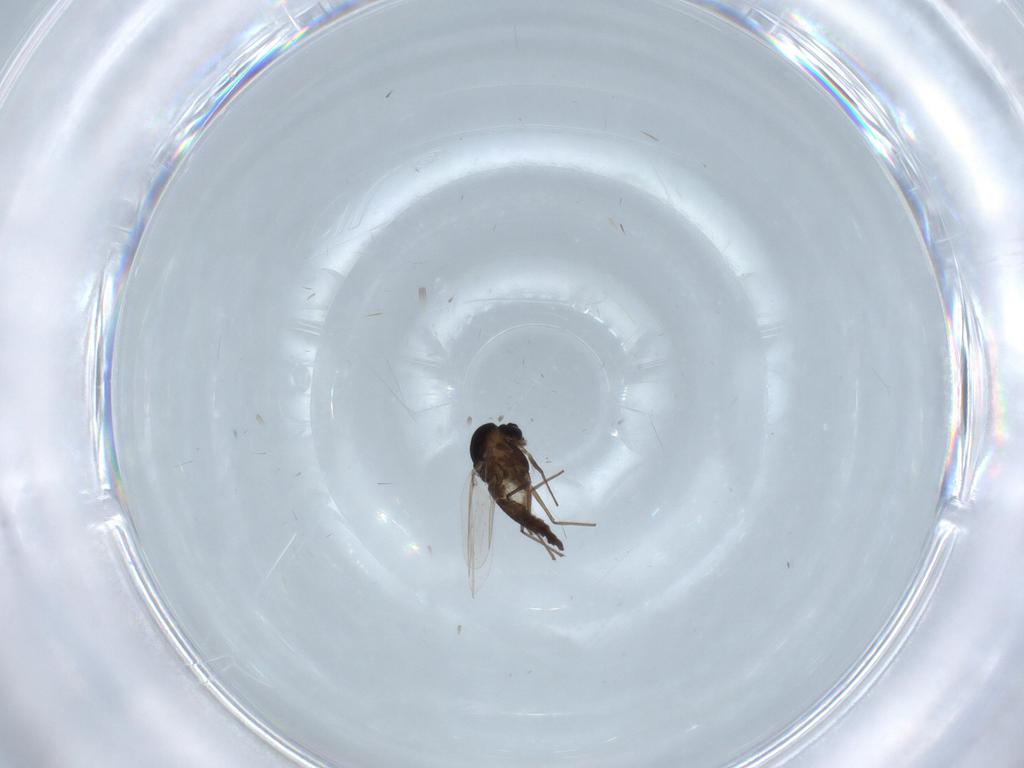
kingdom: Animalia
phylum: Arthropoda
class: Insecta
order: Diptera
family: Chironomidae
